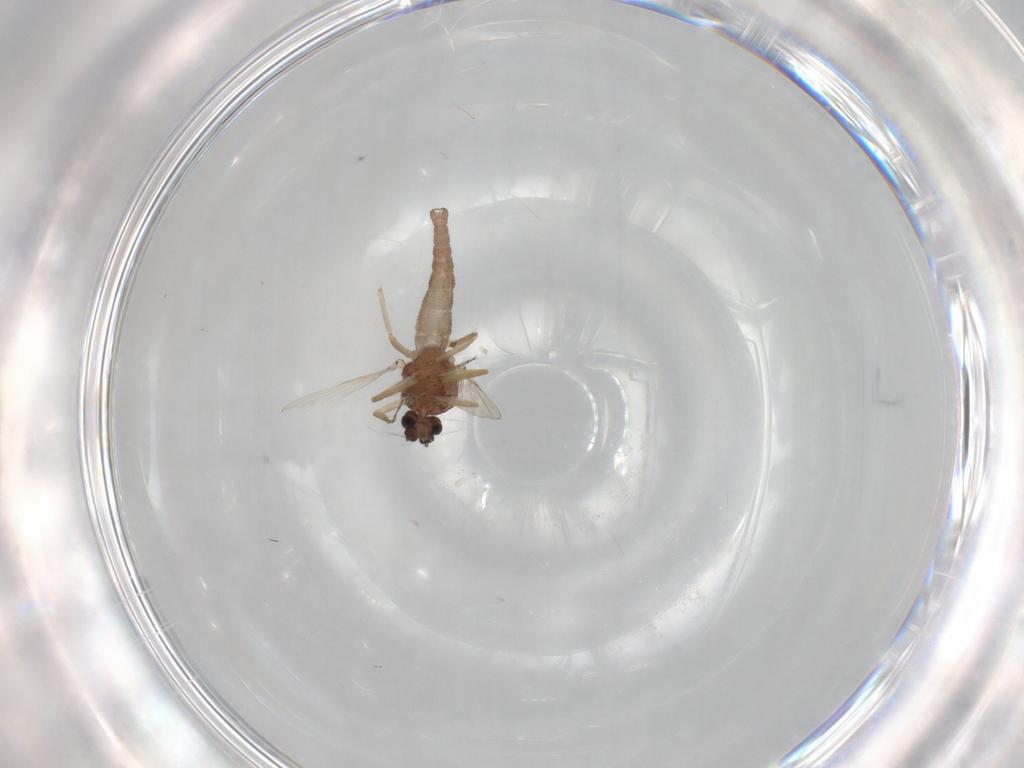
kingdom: Animalia
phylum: Arthropoda
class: Insecta
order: Diptera
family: Ceratopogonidae
